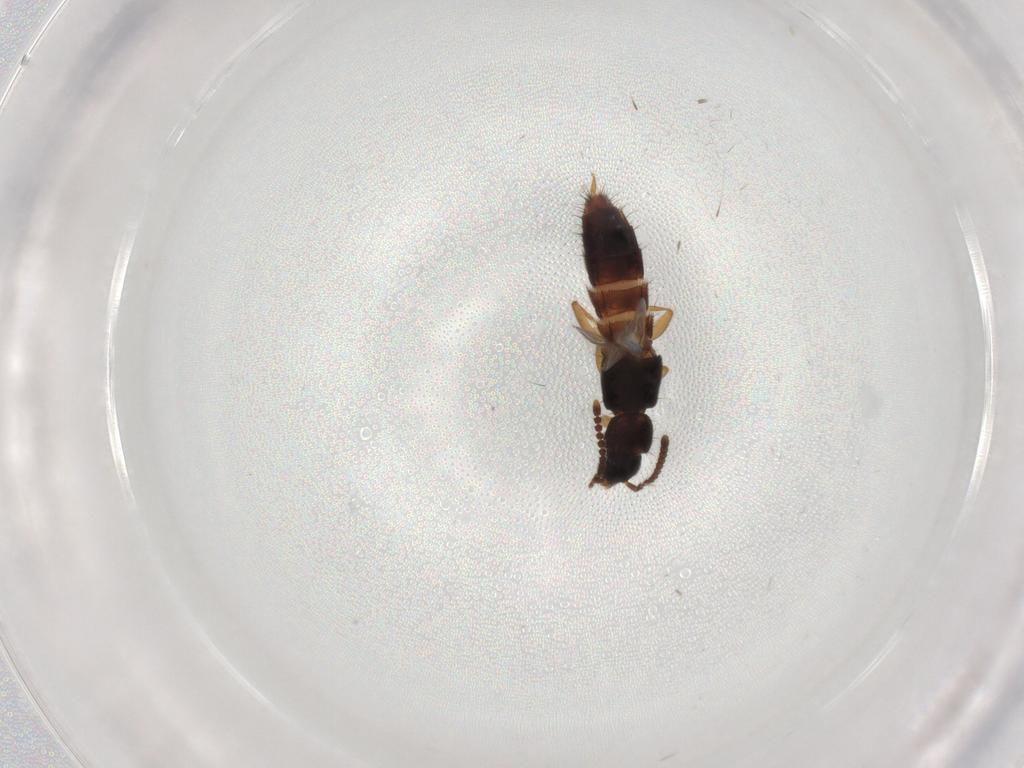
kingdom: Animalia
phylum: Arthropoda
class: Insecta
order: Coleoptera
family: Staphylinidae
